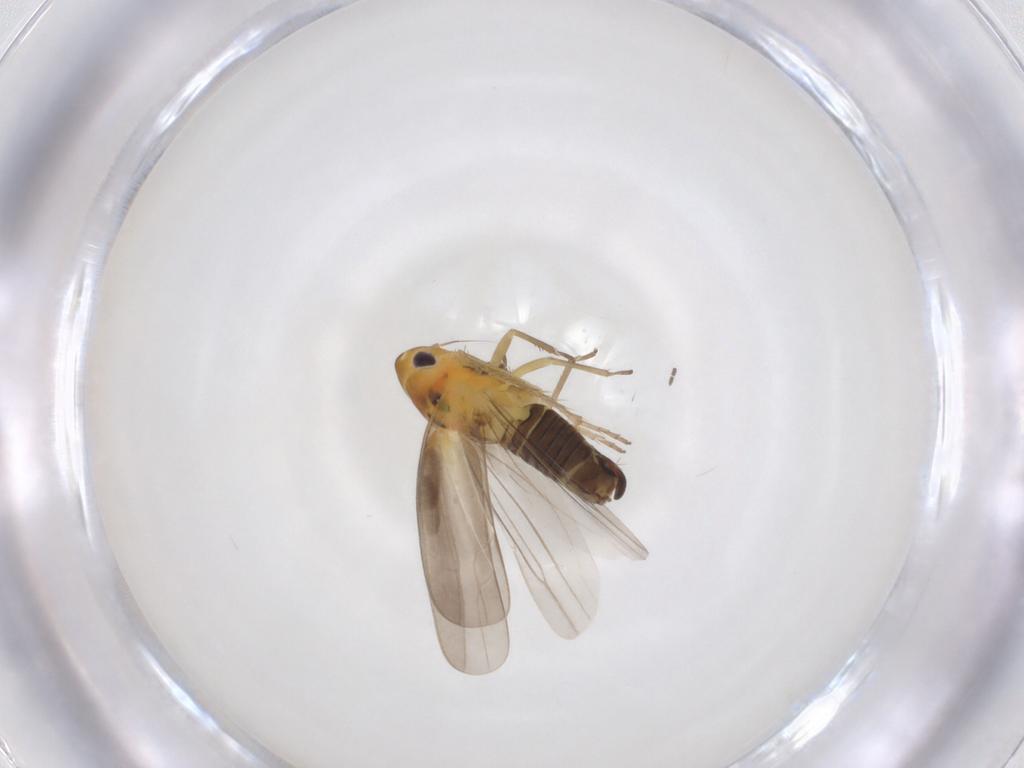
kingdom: Animalia
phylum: Arthropoda
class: Insecta
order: Hemiptera
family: Cicadellidae
